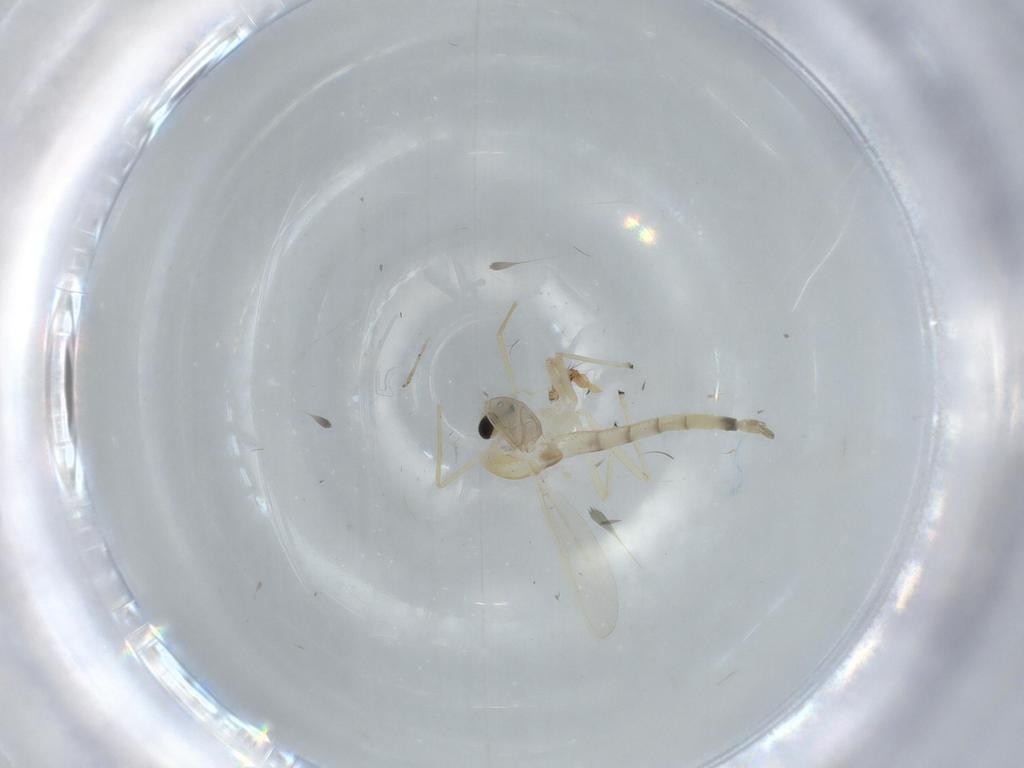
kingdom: Animalia
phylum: Arthropoda
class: Insecta
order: Diptera
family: Chironomidae
